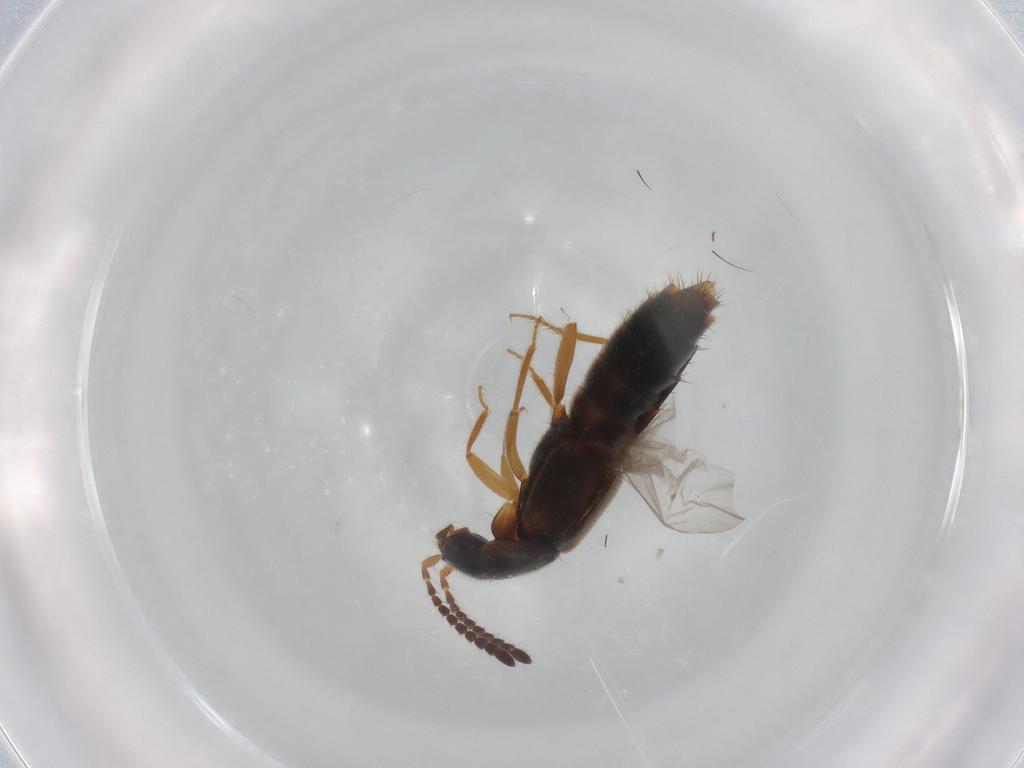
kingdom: Animalia
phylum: Arthropoda
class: Insecta
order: Coleoptera
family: Staphylinidae
